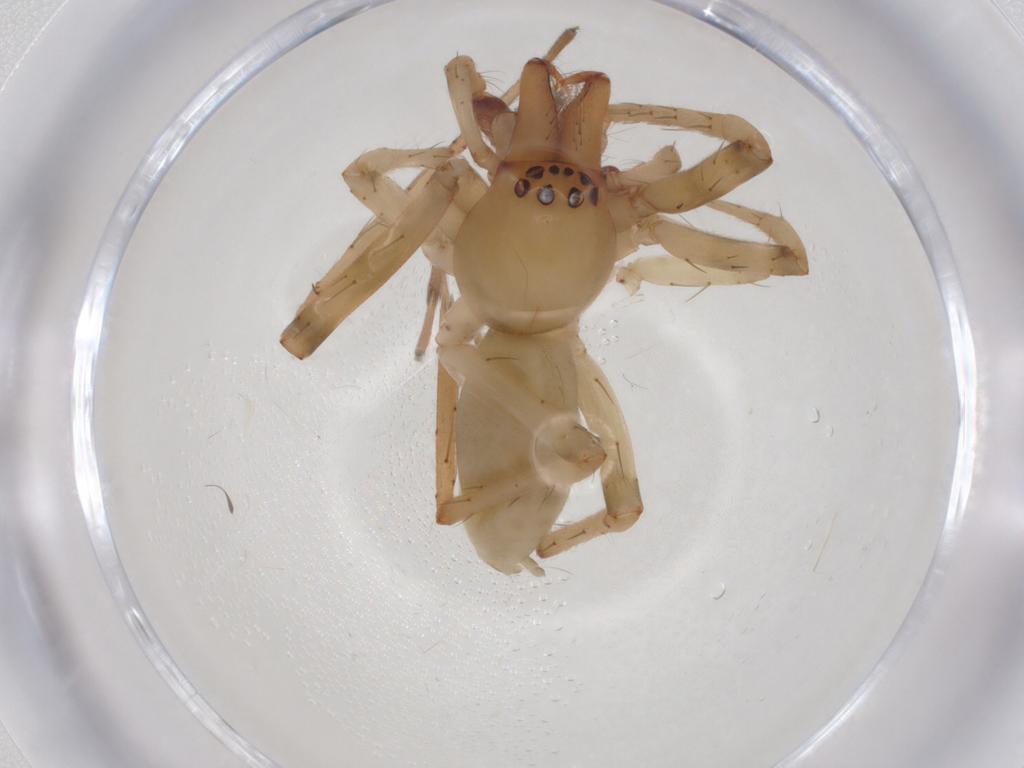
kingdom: Animalia
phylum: Arthropoda
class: Arachnida
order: Araneae
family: Anyphaenidae
